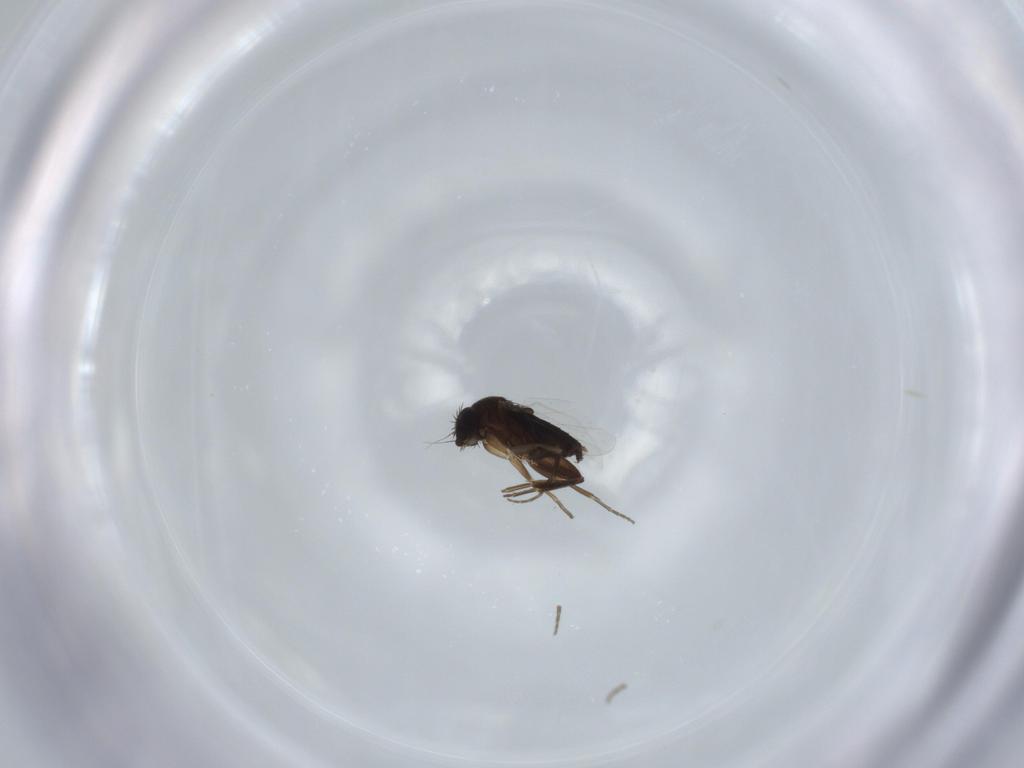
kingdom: Animalia
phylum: Arthropoda
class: Insecta
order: Diptera
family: Phoridae
